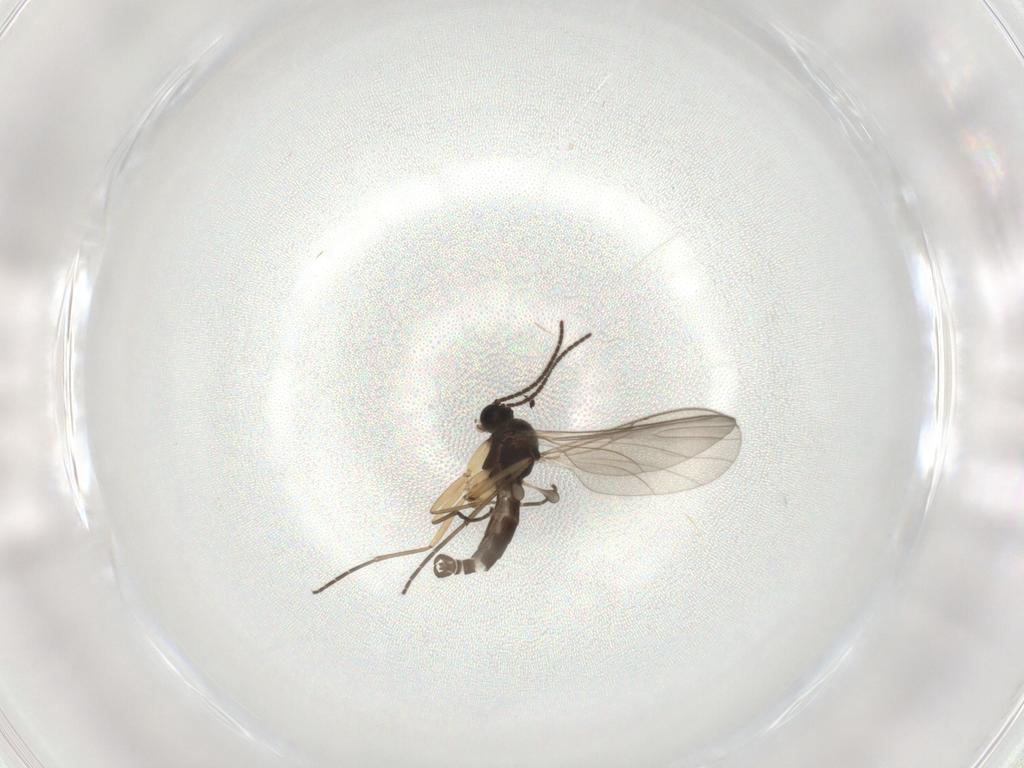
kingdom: Animalia
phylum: Arthropoda
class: Insecta
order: Diptera
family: Sciaridae
